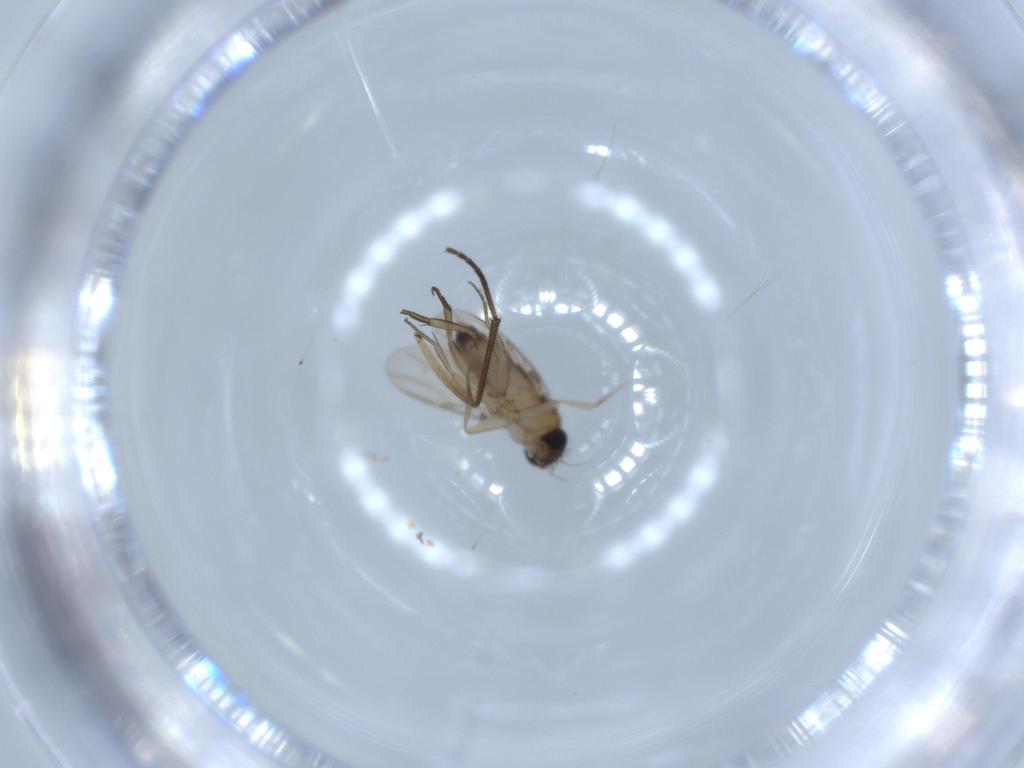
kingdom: Animalia
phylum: Arthropoda
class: Insecta
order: Diptera
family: Phoridae
